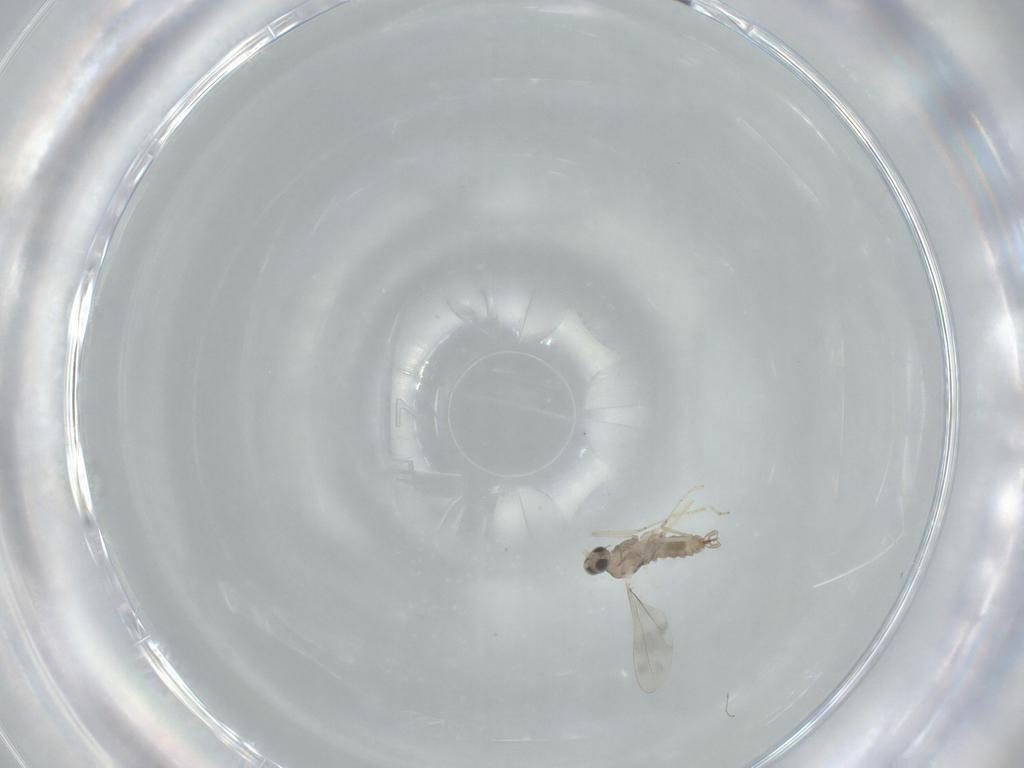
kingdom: Animalia
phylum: Arthropoda
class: Insecta
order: Diptera
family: Cecidomyiidae
